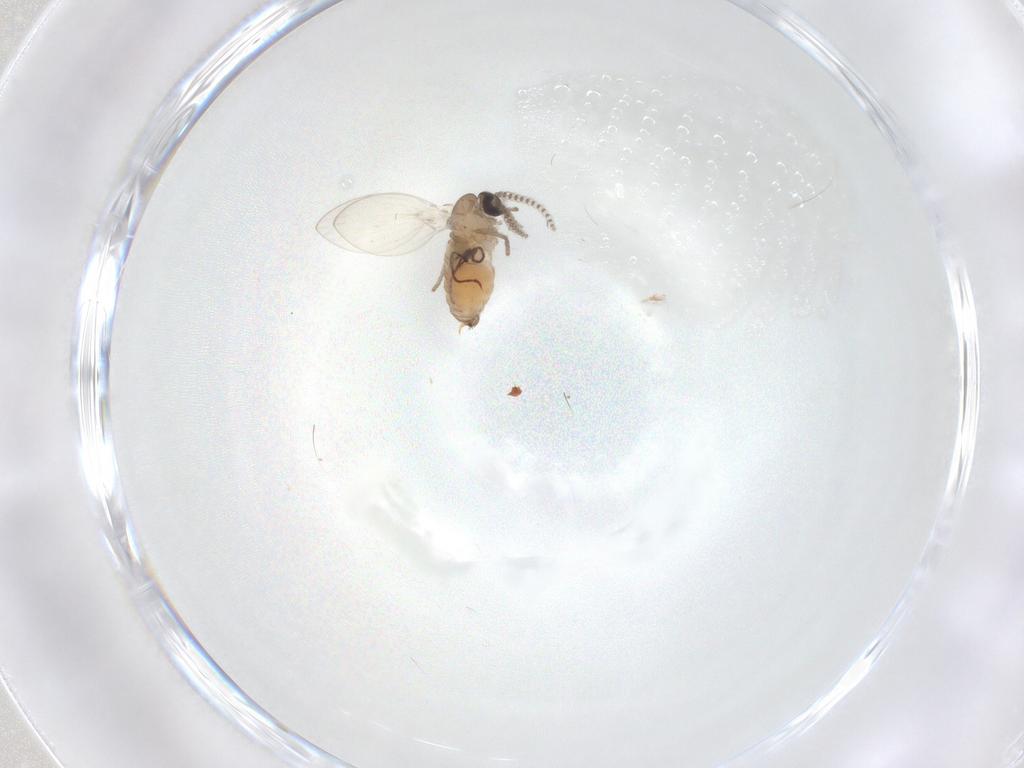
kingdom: Animalia
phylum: Arthropoda
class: Insecta
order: Diptera
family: Psychodidae
